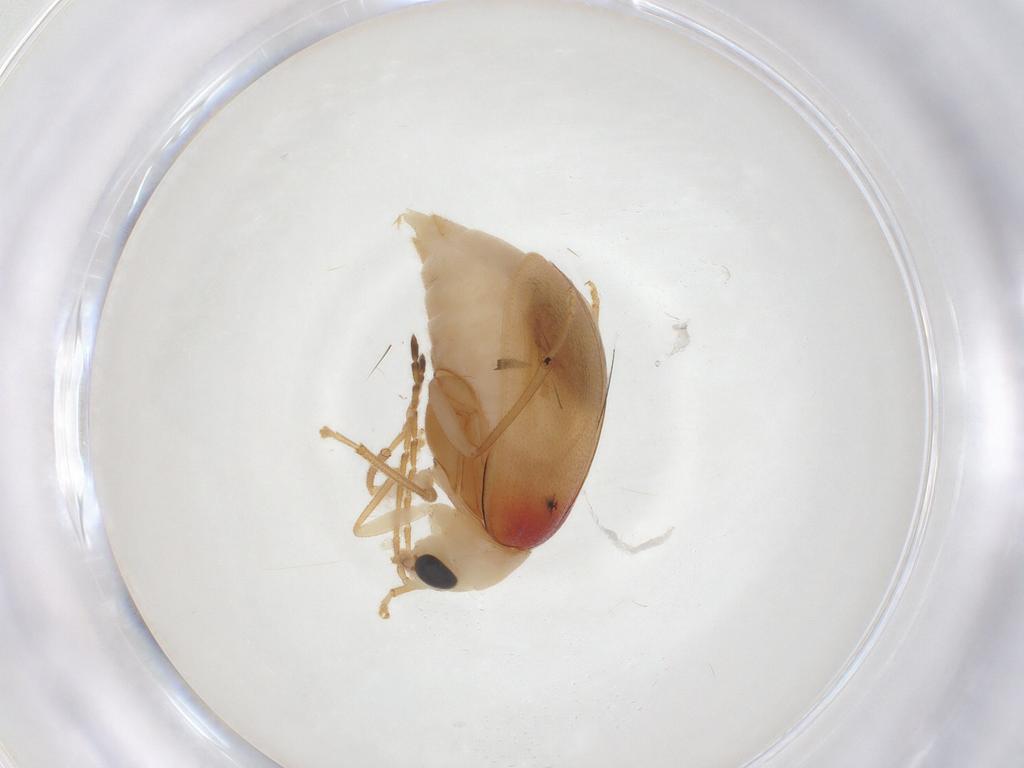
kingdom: Animalia
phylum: Arthropoda
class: Insecta
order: Coleoptera
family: Chrysomelidae
